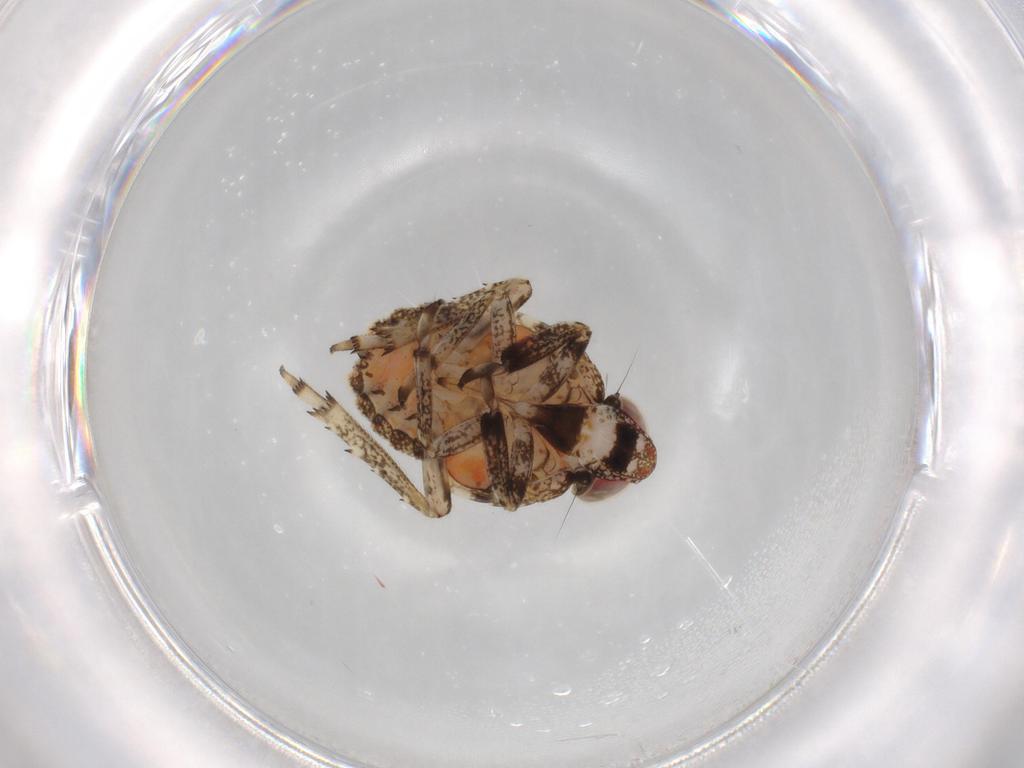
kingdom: Animalia
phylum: Arthropoda
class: Insecta
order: Hemiptera
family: Issidae
